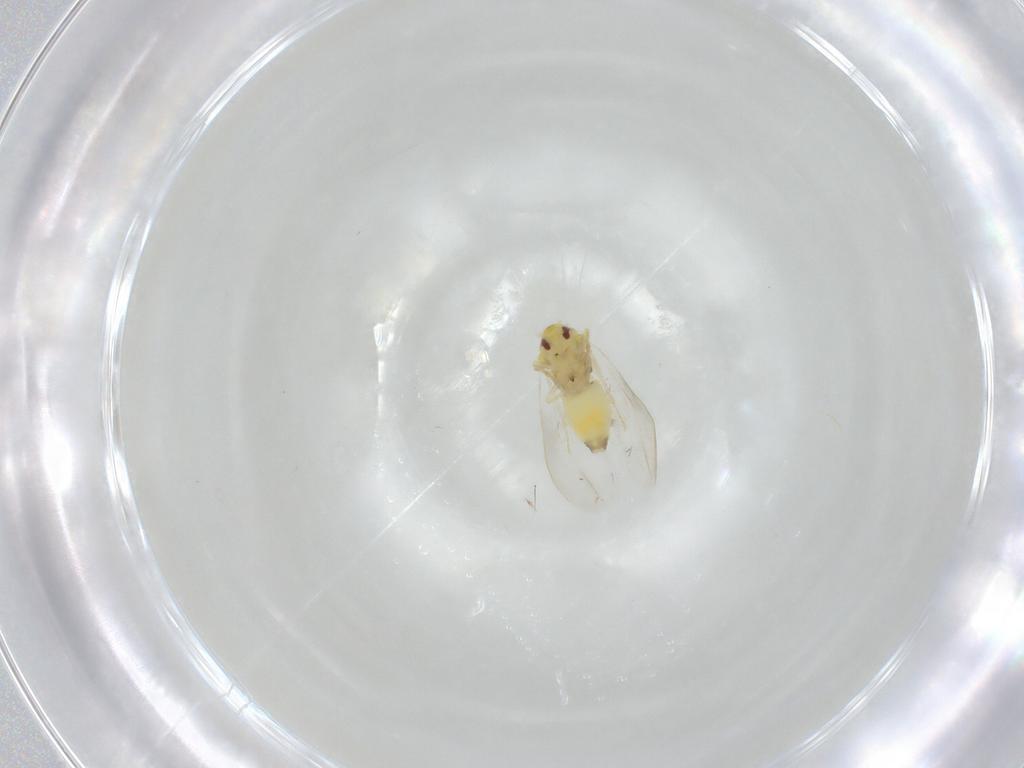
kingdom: Animalia
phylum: Arthropoda
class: Insecta
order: Hemiptera
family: Aleyrodidae
